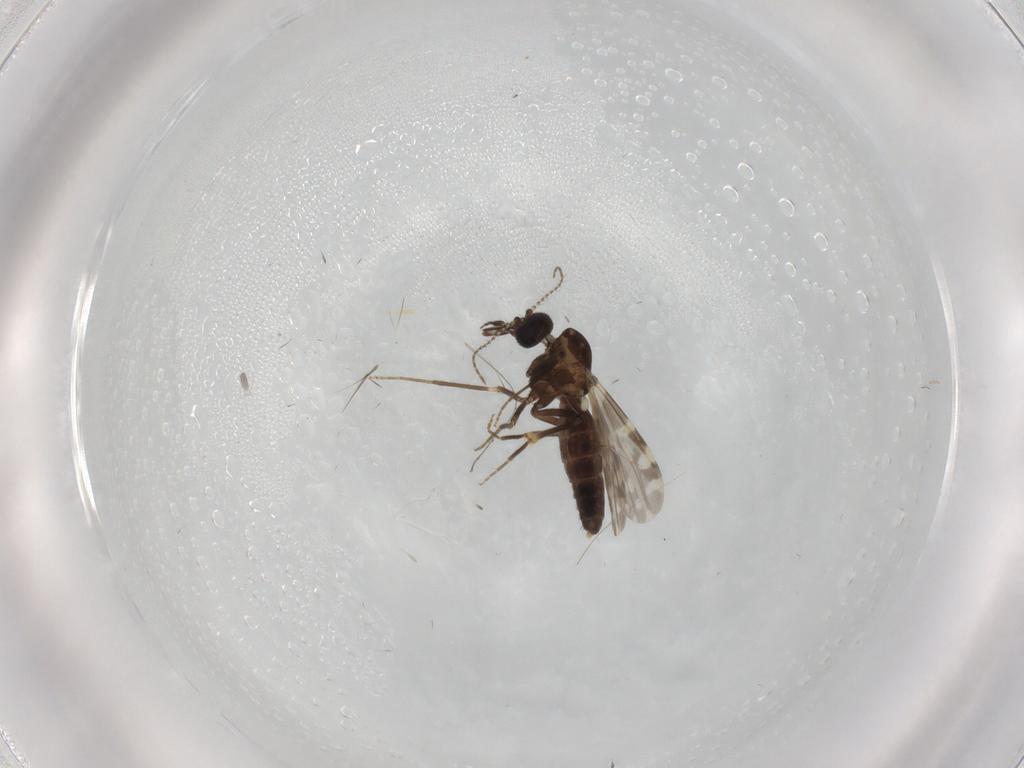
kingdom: Animalia
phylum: Arthropoda
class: Insecta
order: Diptera
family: Ceratopogonidae
